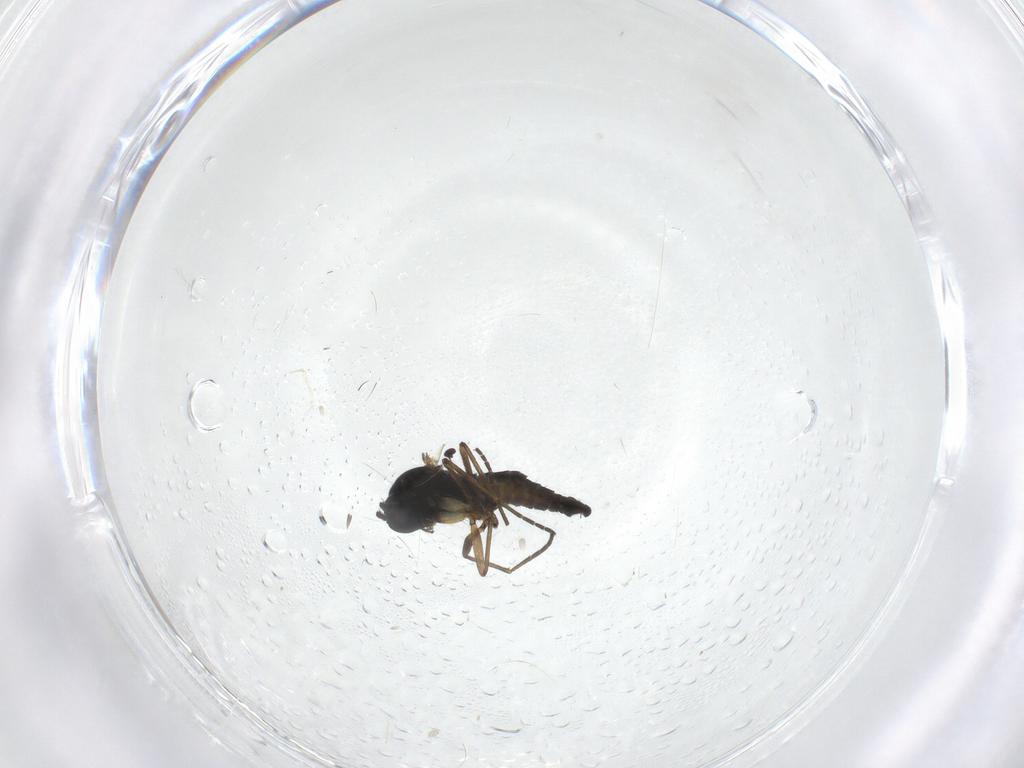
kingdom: Animalia
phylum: Arthropoda
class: Insecta
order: Diptera
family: Sciaridae
